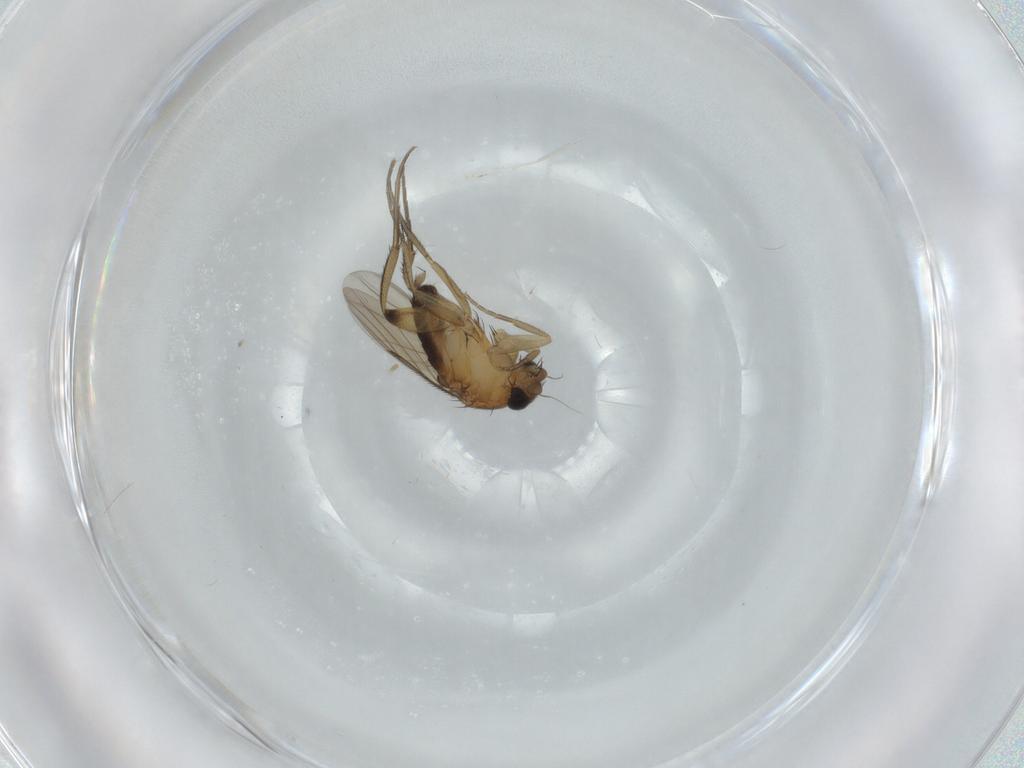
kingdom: Animalia
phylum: Arthropoda
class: Insecta
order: Diptera
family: Phoridae
